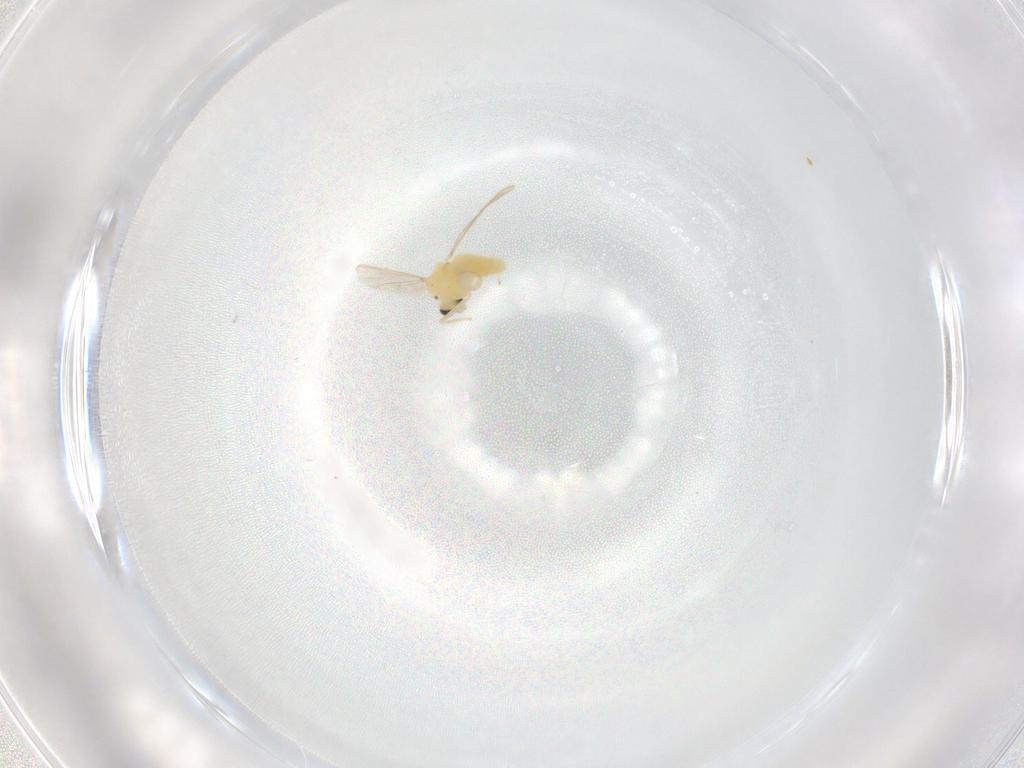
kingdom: Animalia
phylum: Arthropoda
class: Insecta
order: Diptera
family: Chironomidae
